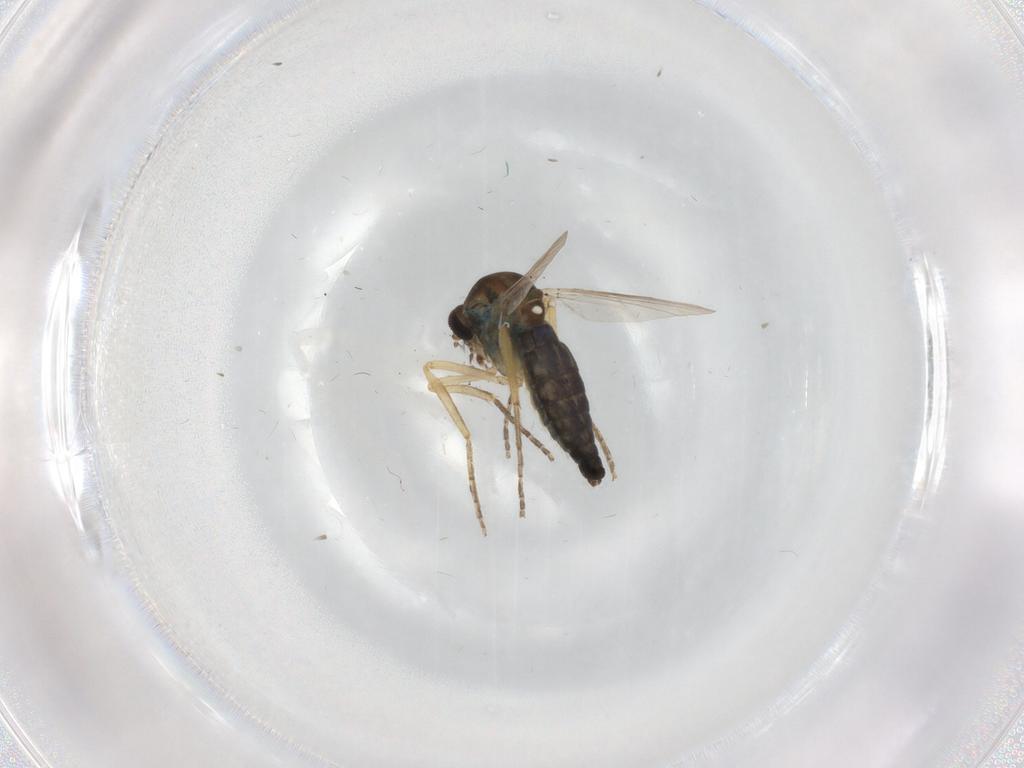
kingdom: Animalia
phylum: Arthropoda
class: Insecta
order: Diptera
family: Ceratopogonidae
